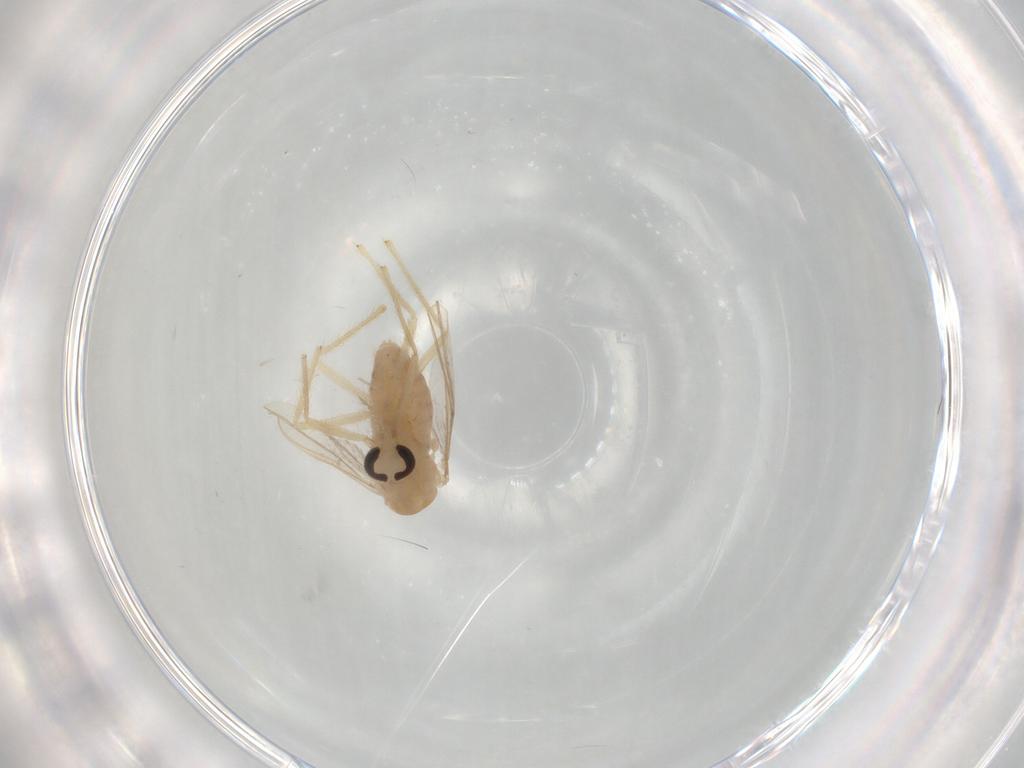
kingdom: Animalia
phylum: Arthropoda
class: Insecta
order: Diptera
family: Chironomidae
